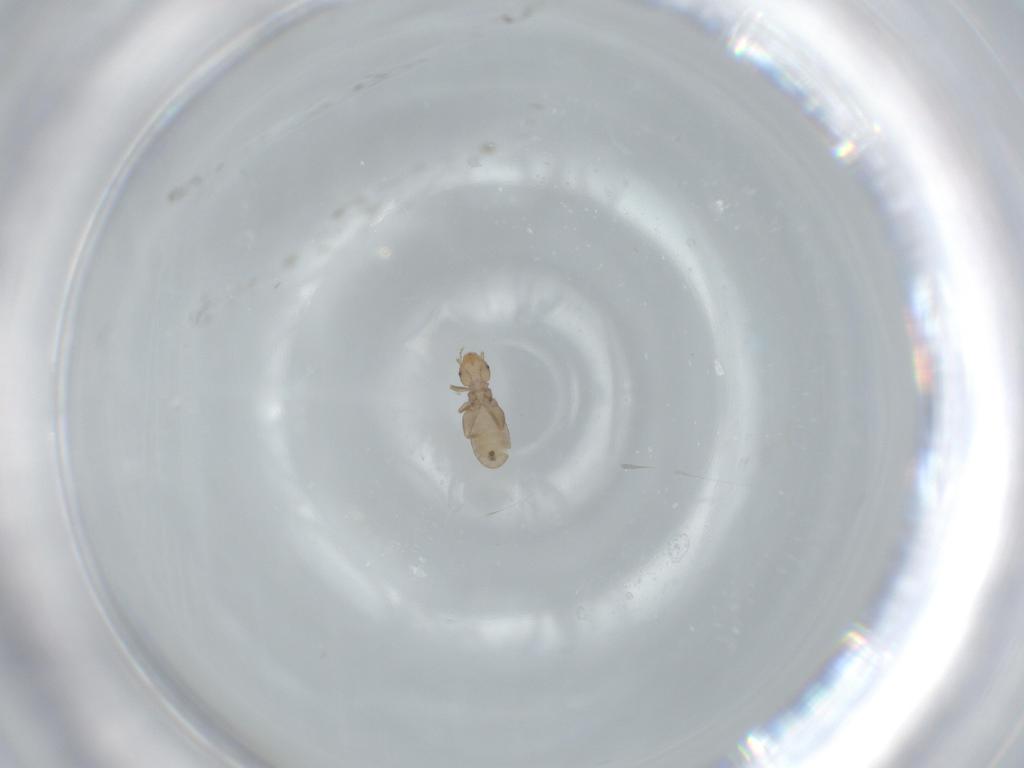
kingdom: Animalia
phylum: Arthropoda
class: Insecta
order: Psocodea
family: Liposcelididae
